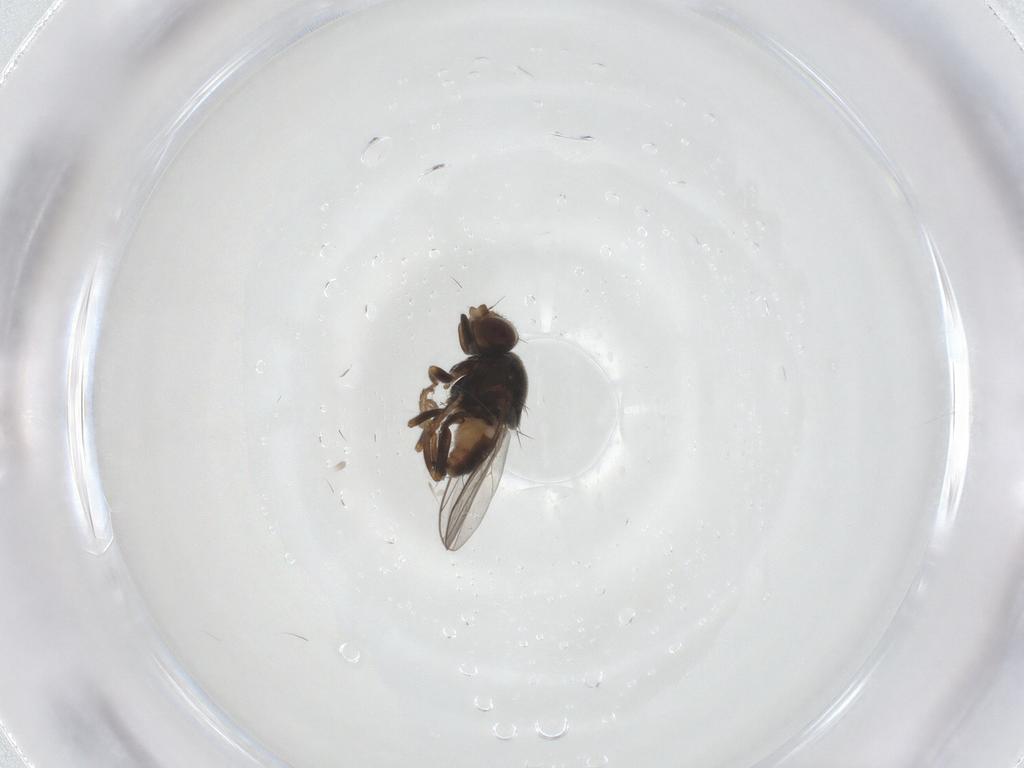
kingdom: Animalia
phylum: Arthropoda
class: Insecta
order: Diptera
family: Chloropidae
